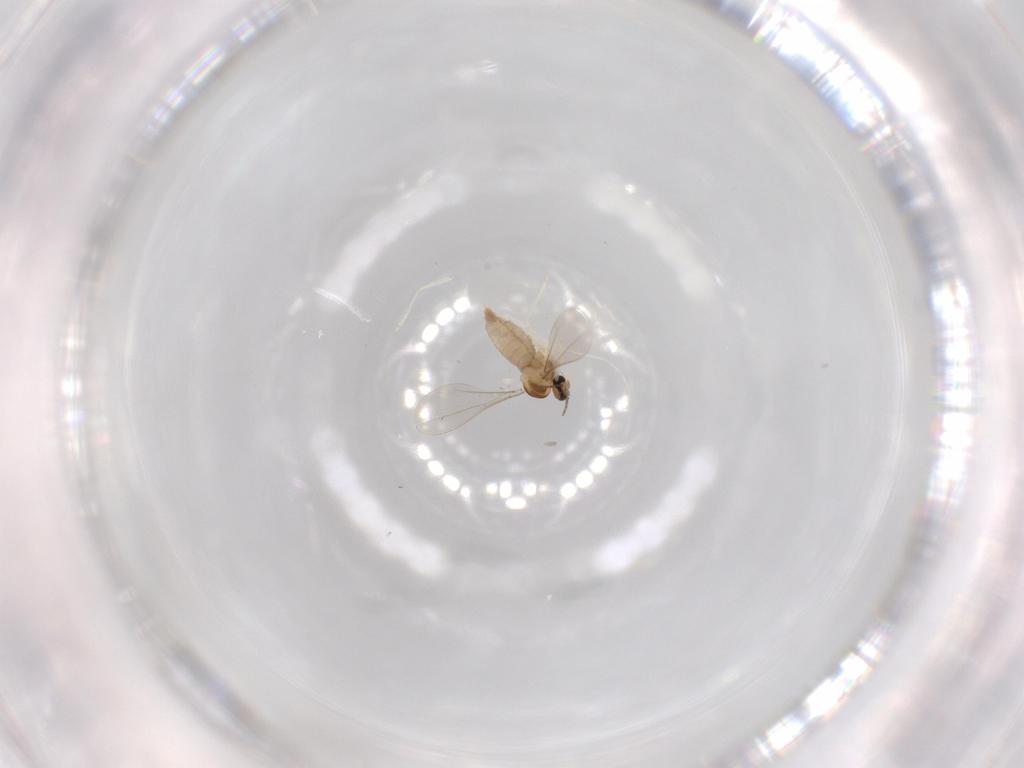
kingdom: Animalia
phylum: Arthropoda
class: Insecta
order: Diptera
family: Cecidomyiidae
